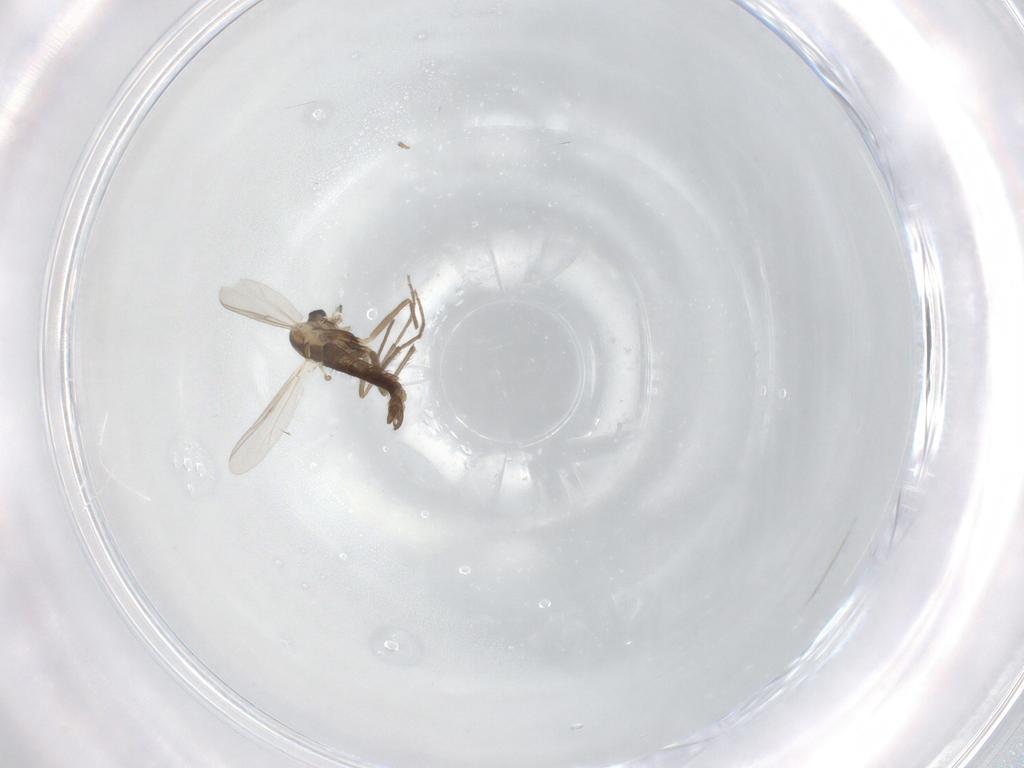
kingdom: Animalia
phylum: Arthropoda
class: Insecta
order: Diptera
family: Chironomidae
